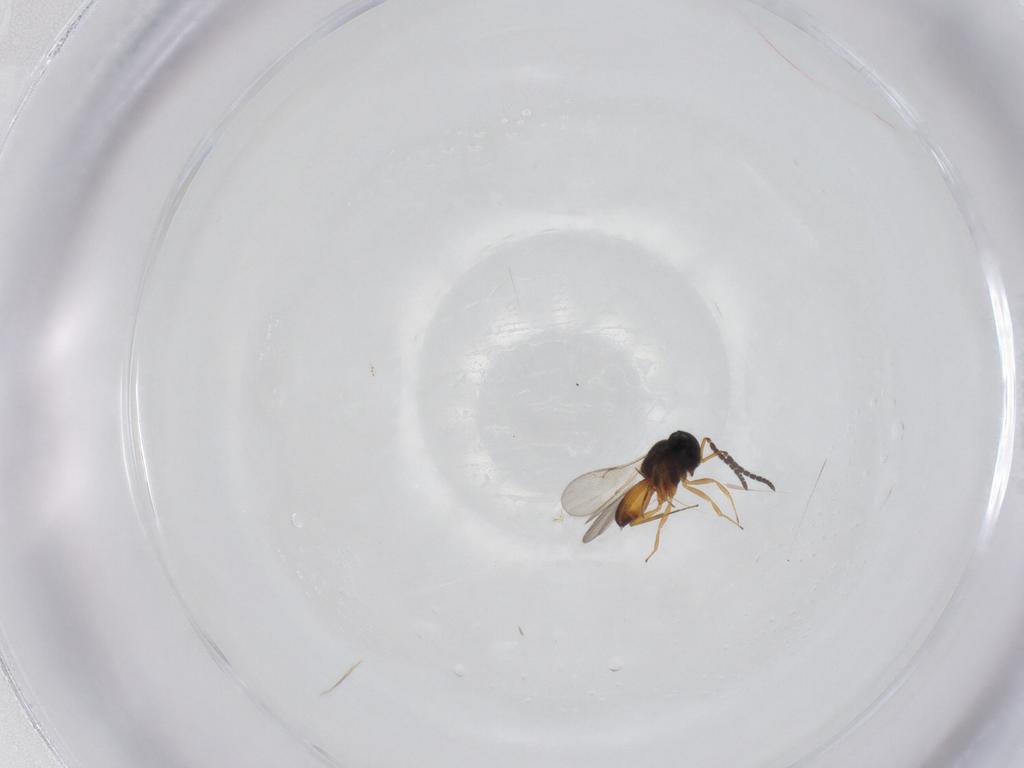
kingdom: Animalia
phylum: Arthropoda
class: Insecta
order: Hymenoptera
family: Scelionidae
